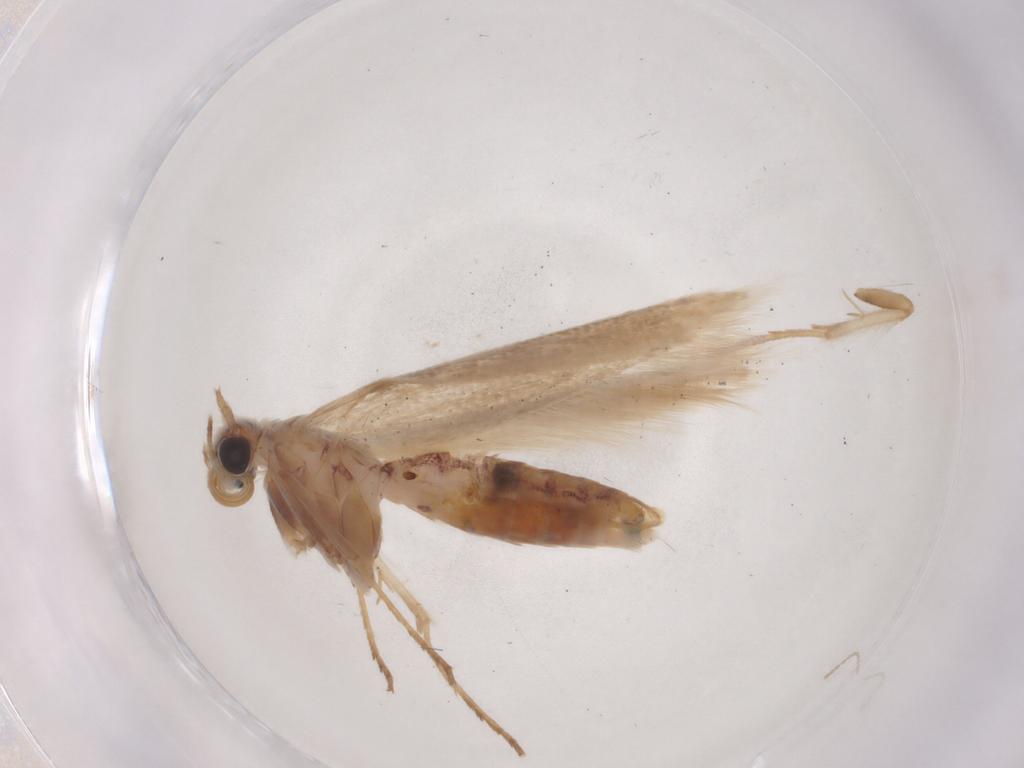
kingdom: Animalia
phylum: Arthropoda
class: Insecta
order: Lepidoptera
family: Scythrididae
